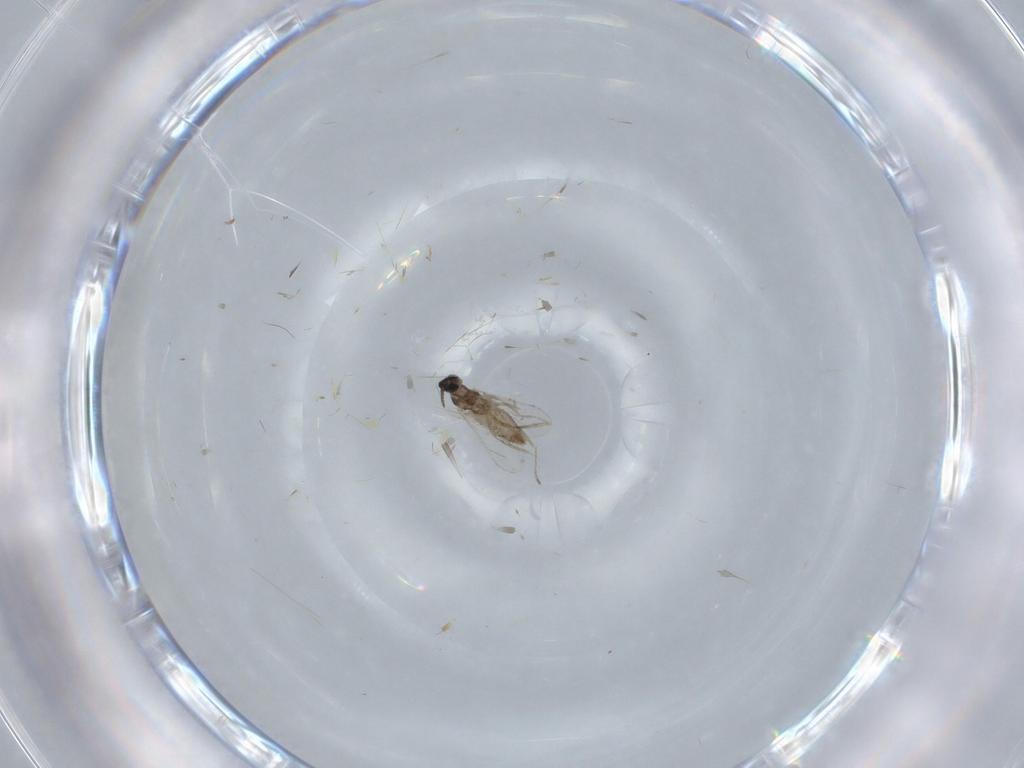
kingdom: Animalia
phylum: Arthropoda
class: Insecta
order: Diptera
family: Cecidomyiidae
